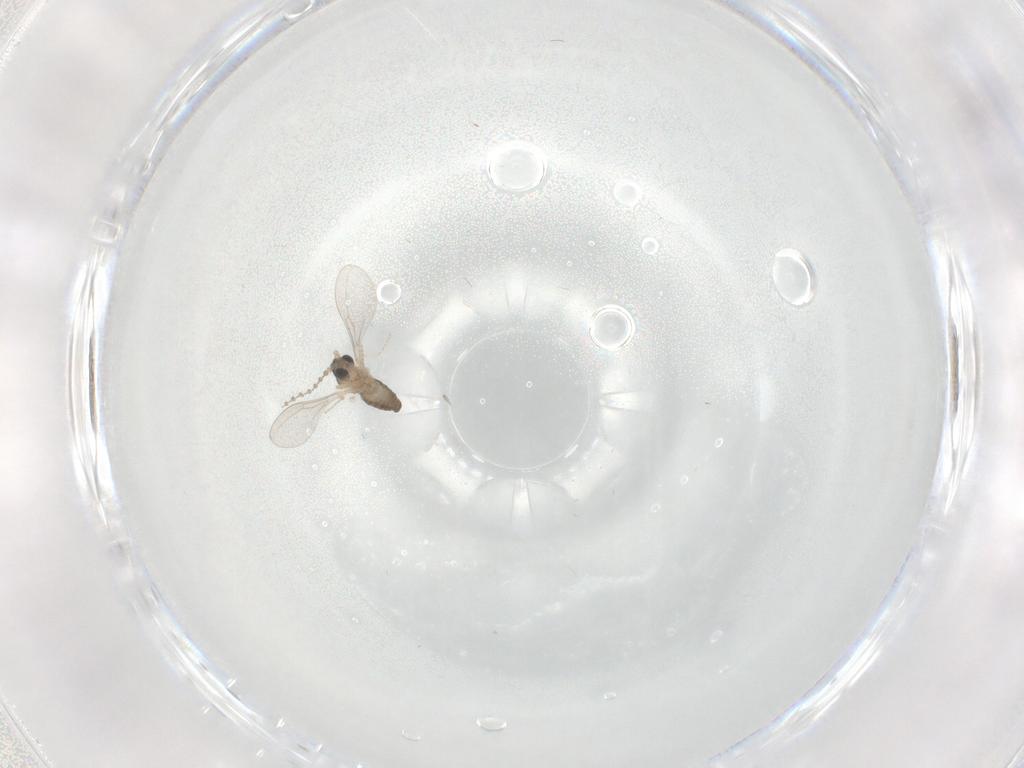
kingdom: Animalia
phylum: Arthropoda
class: Insecta
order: Diptera
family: Cecidomyiidae
